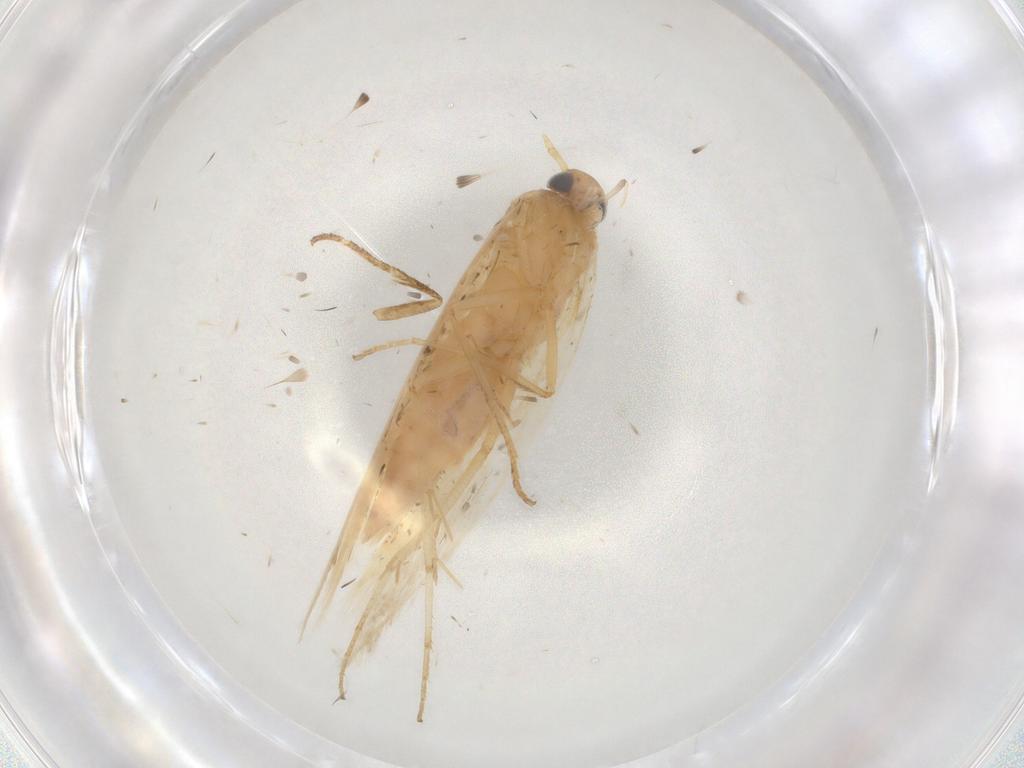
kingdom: Animalia
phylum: Arthropoda
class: Insecta
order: Lepidoptera
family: Gelechiidae
